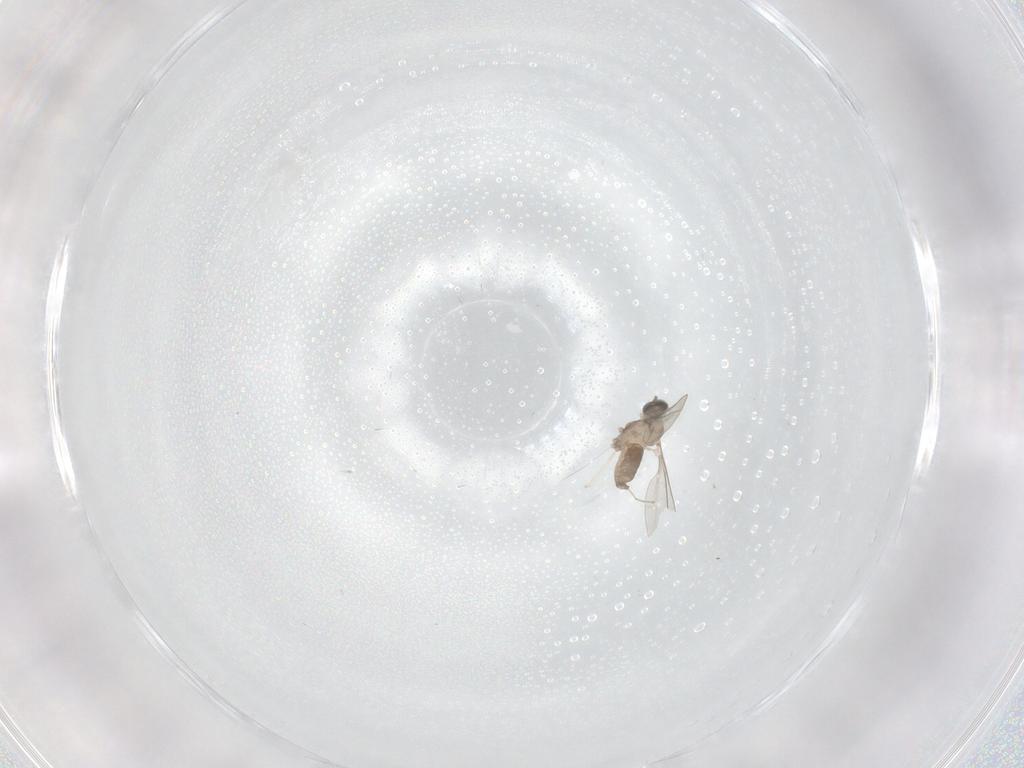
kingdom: Animalia
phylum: Arthropoda
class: Insecta
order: Diptera
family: Cecidomyiidae
